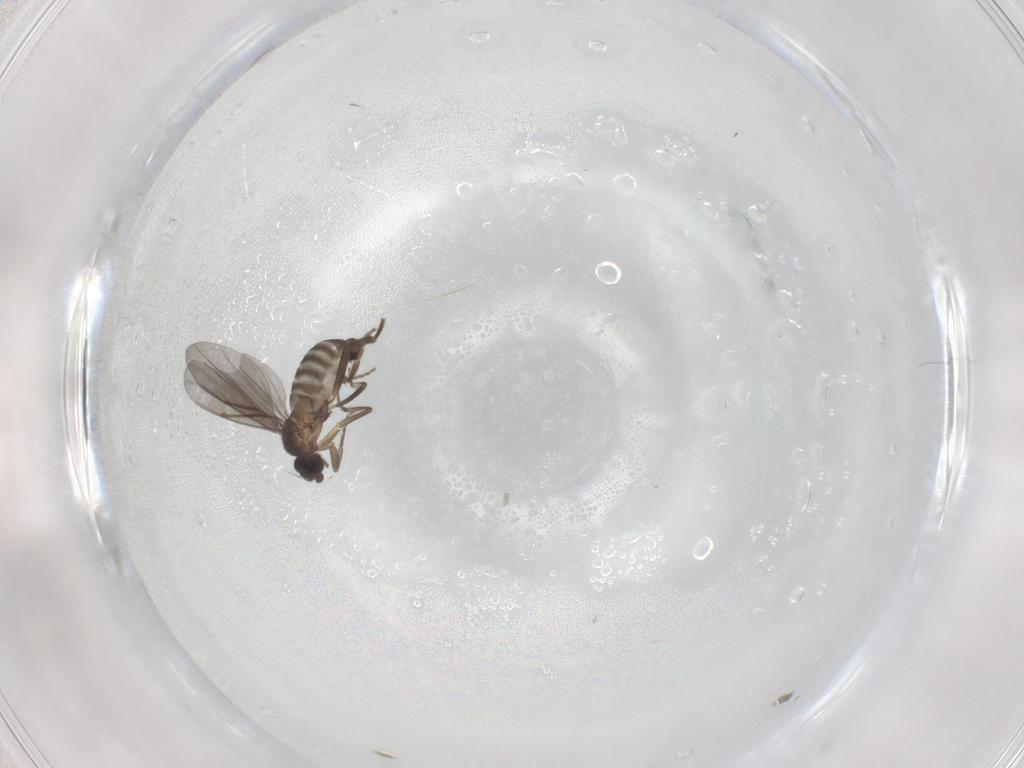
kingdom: Animalia
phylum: Arthropoda
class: Insecta
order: Diptera
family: Phoridae
